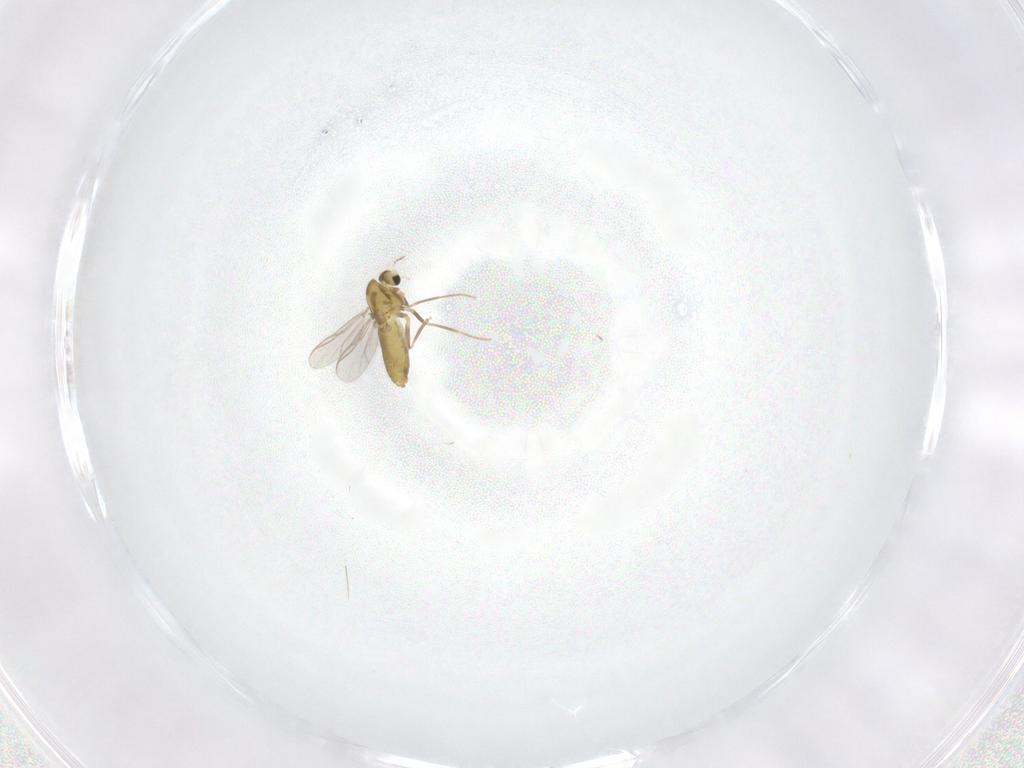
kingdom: Animalia
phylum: Arthropoda
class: Insecta
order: Diptera
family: Chironomidae
